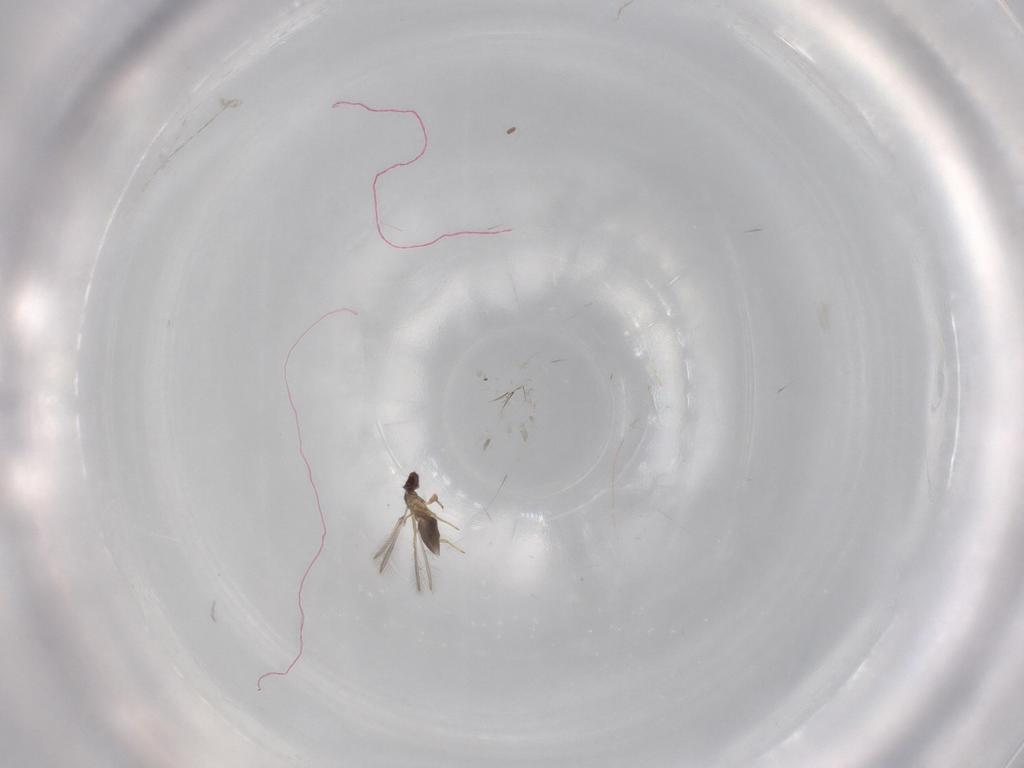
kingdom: Animalia
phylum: Arthropoda
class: Insecta
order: Hymenoptera
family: Mymaridae
